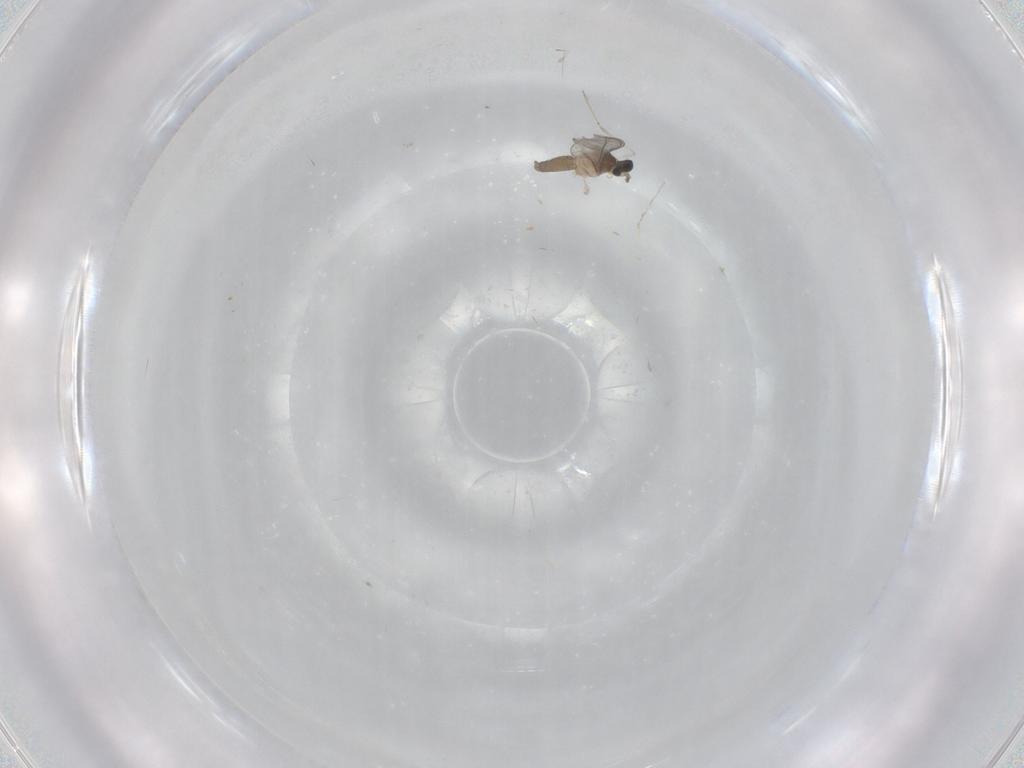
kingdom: Animalia
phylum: Arthropoda
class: Insecta
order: Diptera
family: Cecidomyiidae
